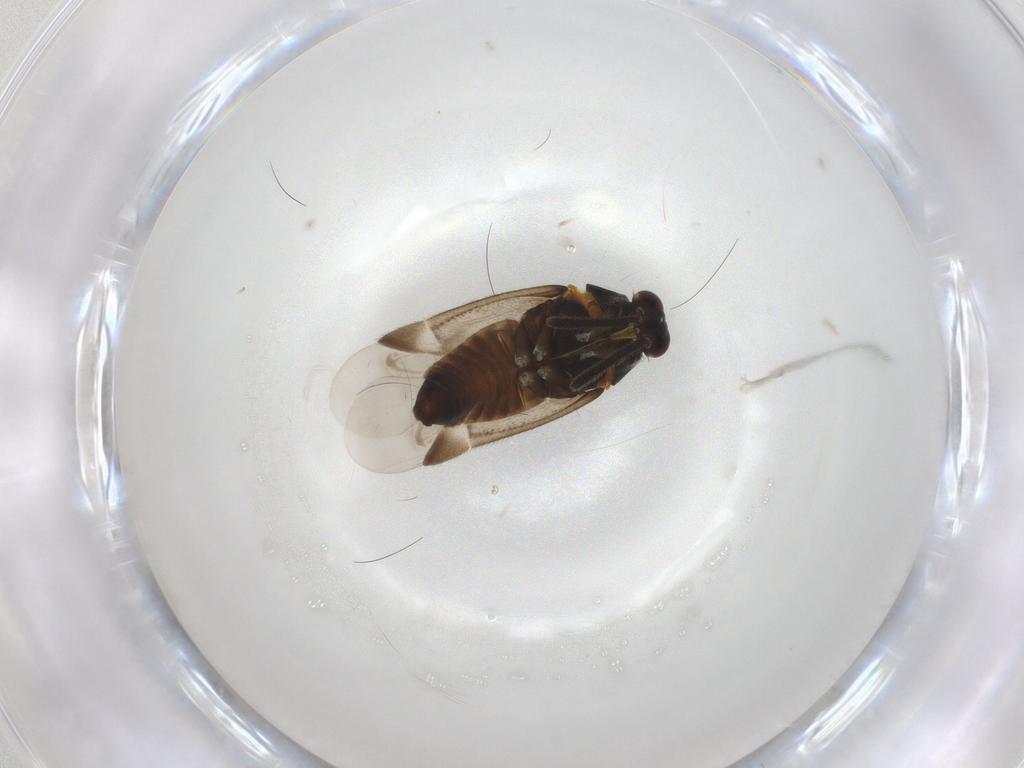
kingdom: Animalia
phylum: Arthropoda
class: Insecta
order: Hemiptera
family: Miridae
